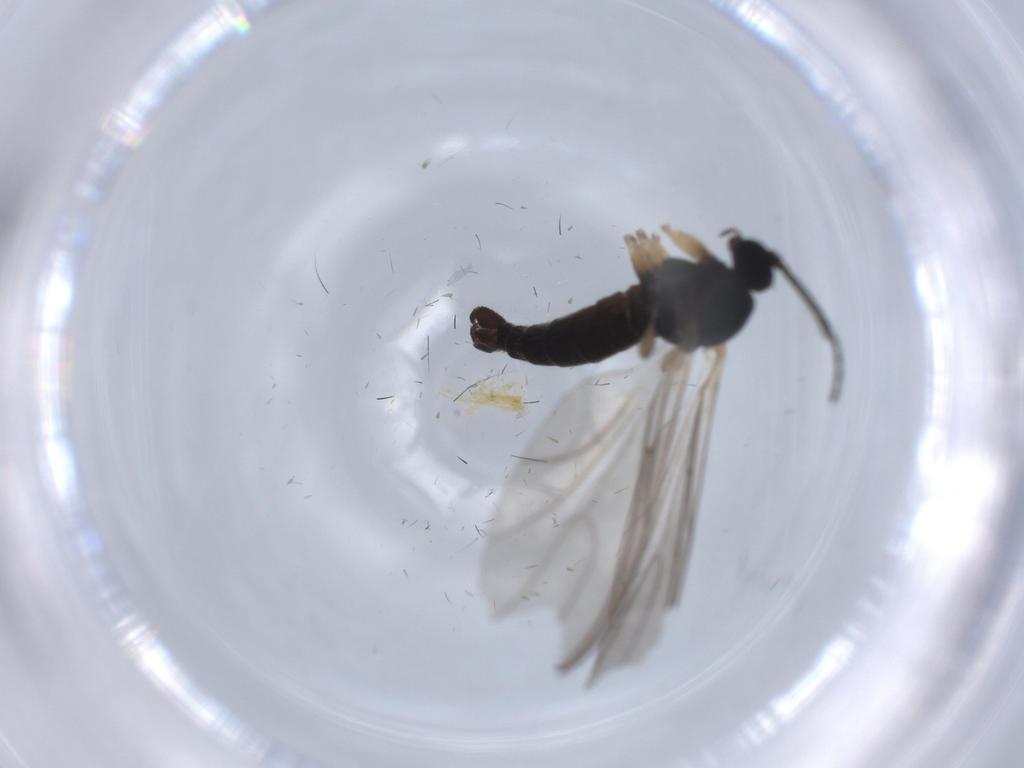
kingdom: Animalia
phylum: Arthropoda
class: Insecta
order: Diptera
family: Sciaridae
